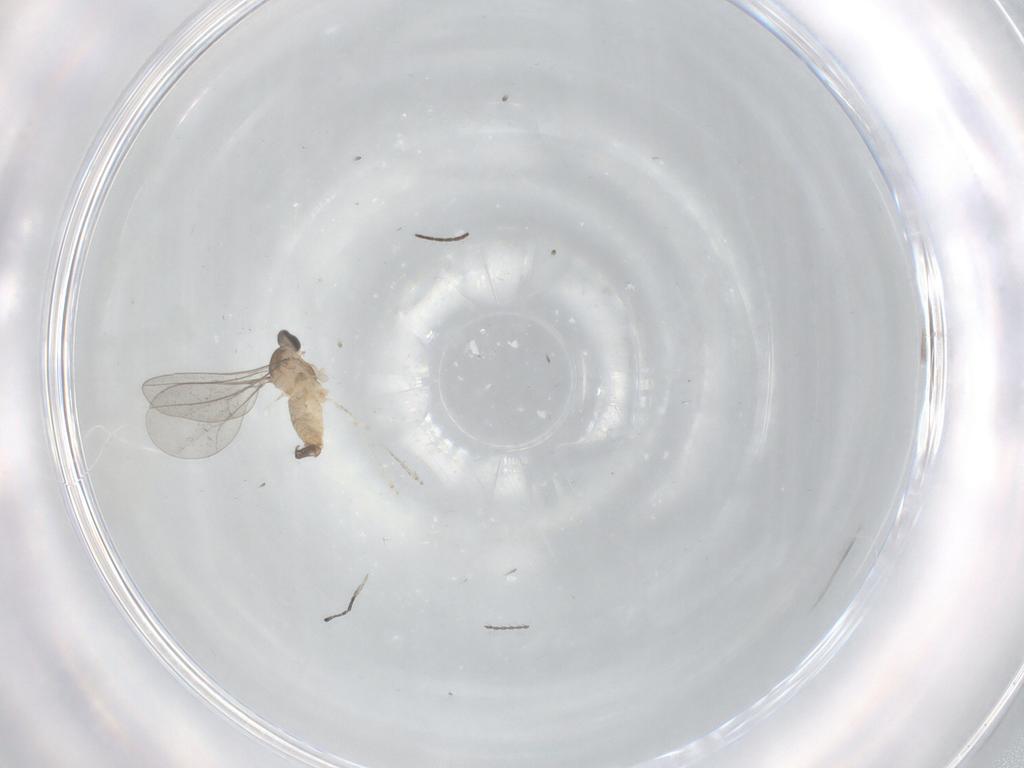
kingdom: Animalia
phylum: Arthropoda
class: Insecta
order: Diptera
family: Cecidomyiidae
